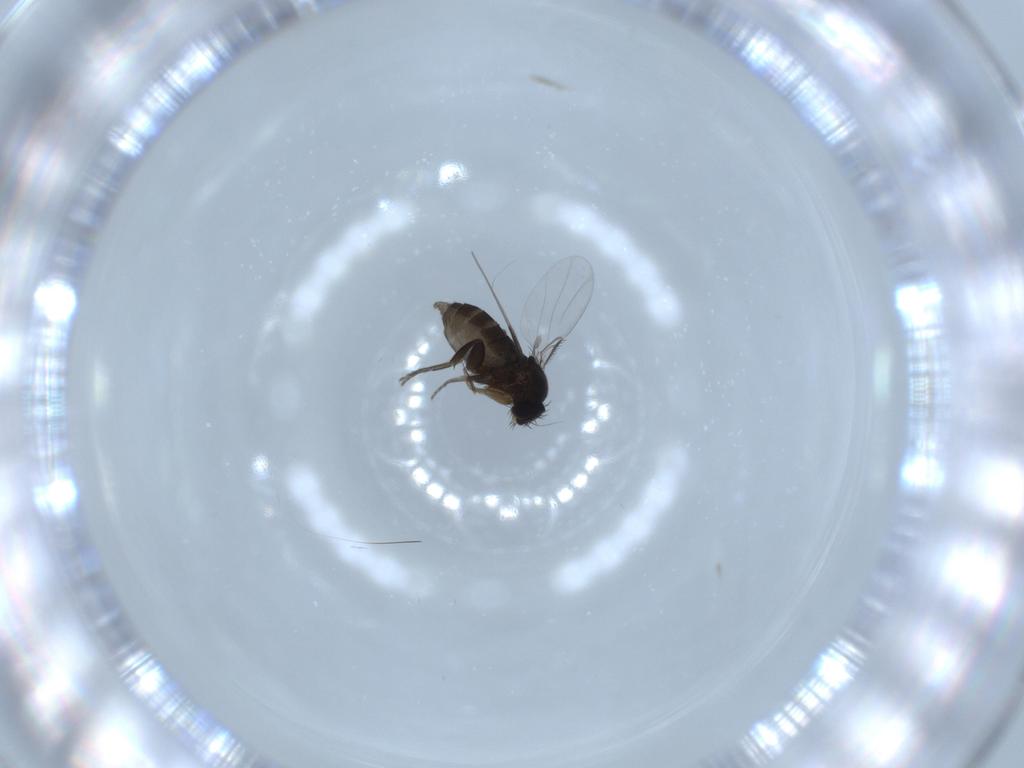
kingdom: Animalia
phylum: Arthropoda
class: Insecta
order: Diptera
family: Phoridae
